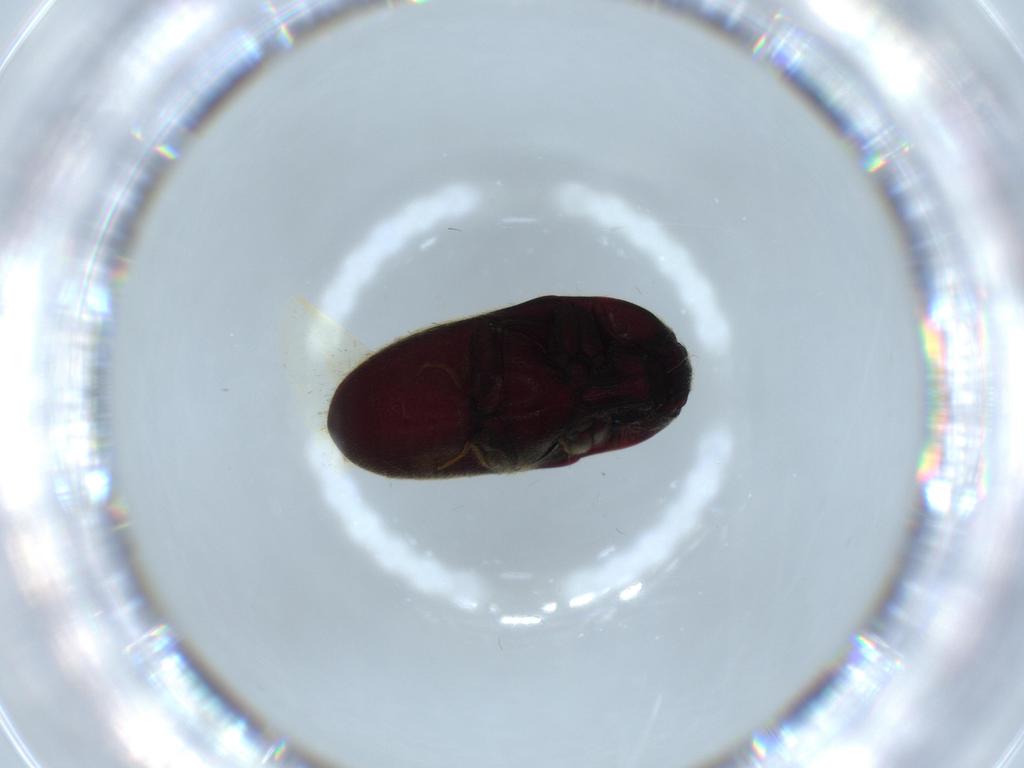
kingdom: Animalia
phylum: Arthropoda
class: Insecta
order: Coleoptera
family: Throscidae
